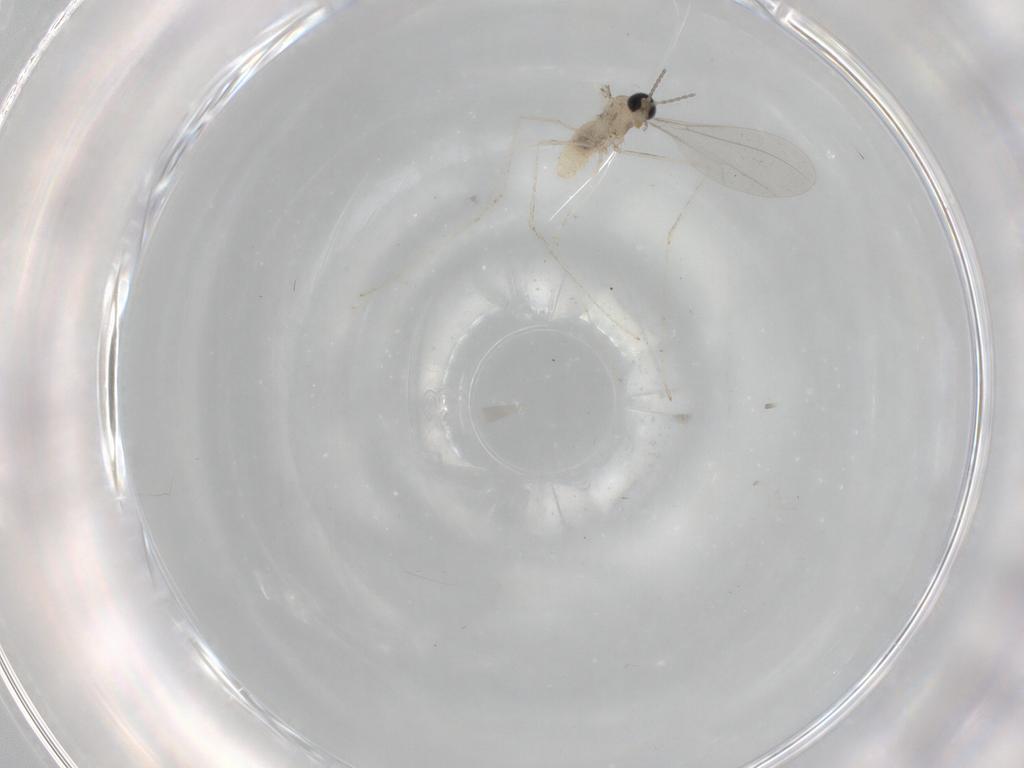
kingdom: Animalia
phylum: Arthropoda
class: Insecta
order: Diptera
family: Cecidomyiidae
